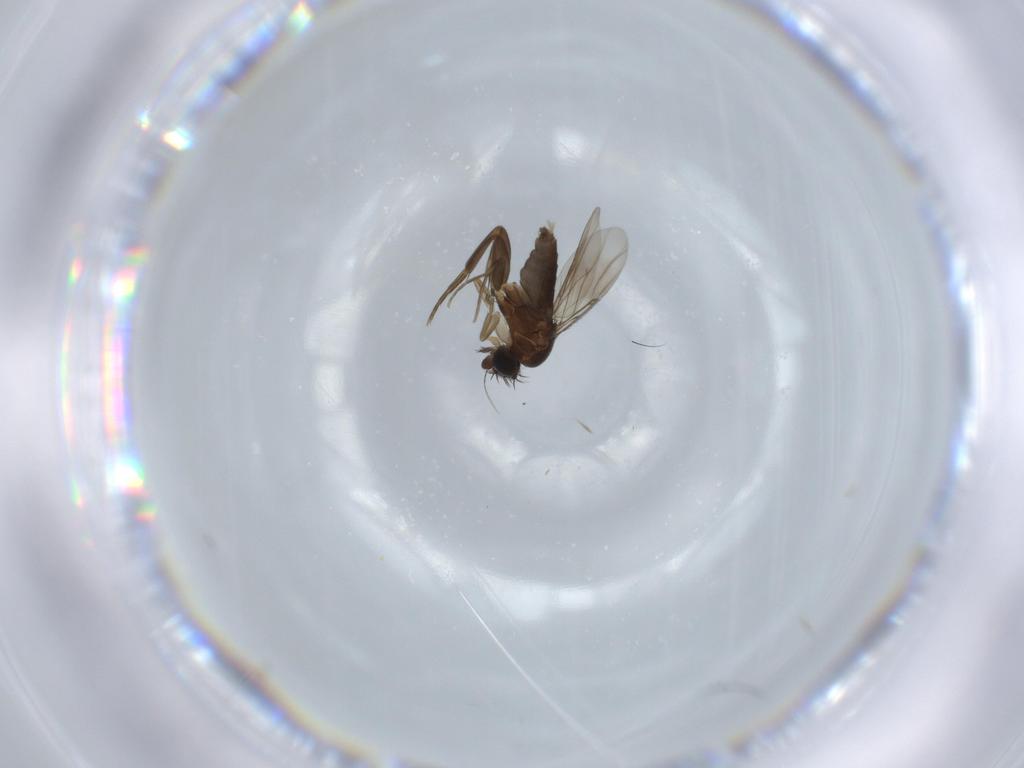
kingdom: Animalia
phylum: Arthropoda
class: Insecta
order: Diptera
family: Phoridae
